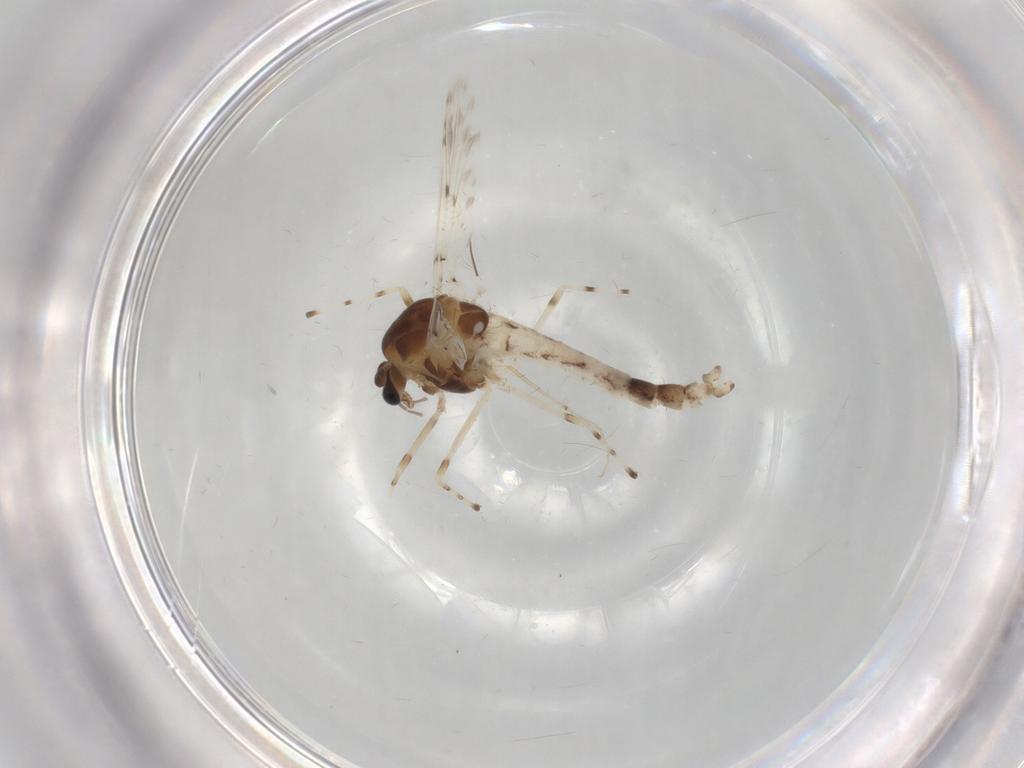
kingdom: Animalia
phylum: Arthropoda
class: Insecta
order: Diptera
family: Chironomidae
